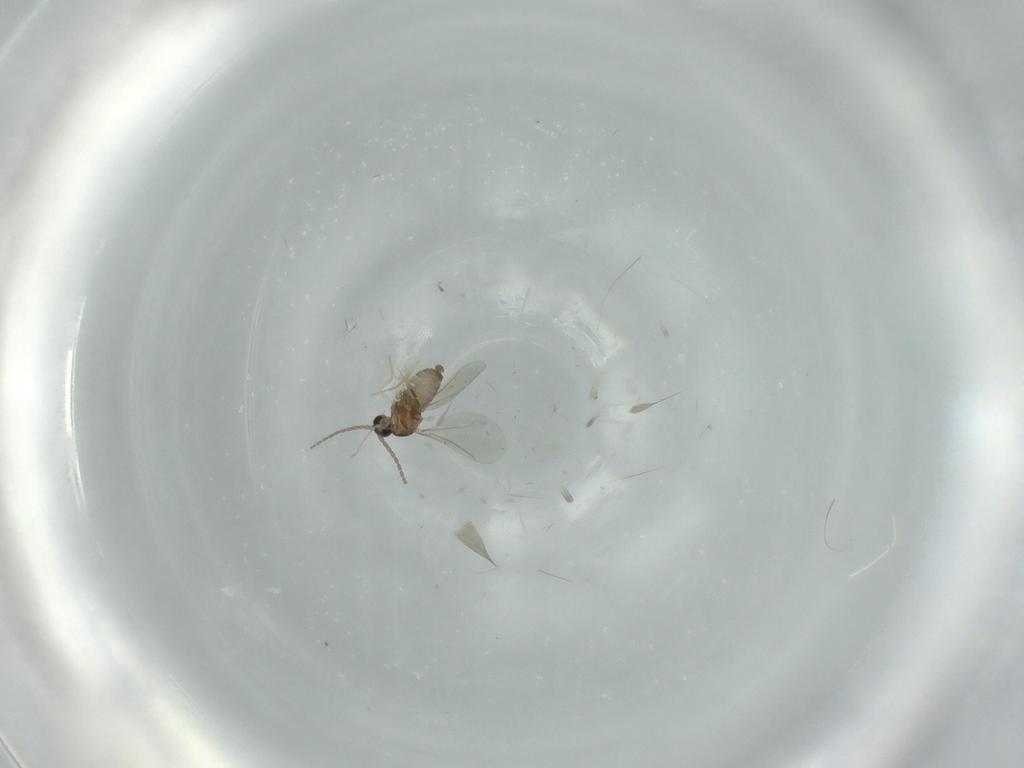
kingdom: Animalia
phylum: Arthropoda
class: Insecta
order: Diptera
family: Cecidomyiidae
